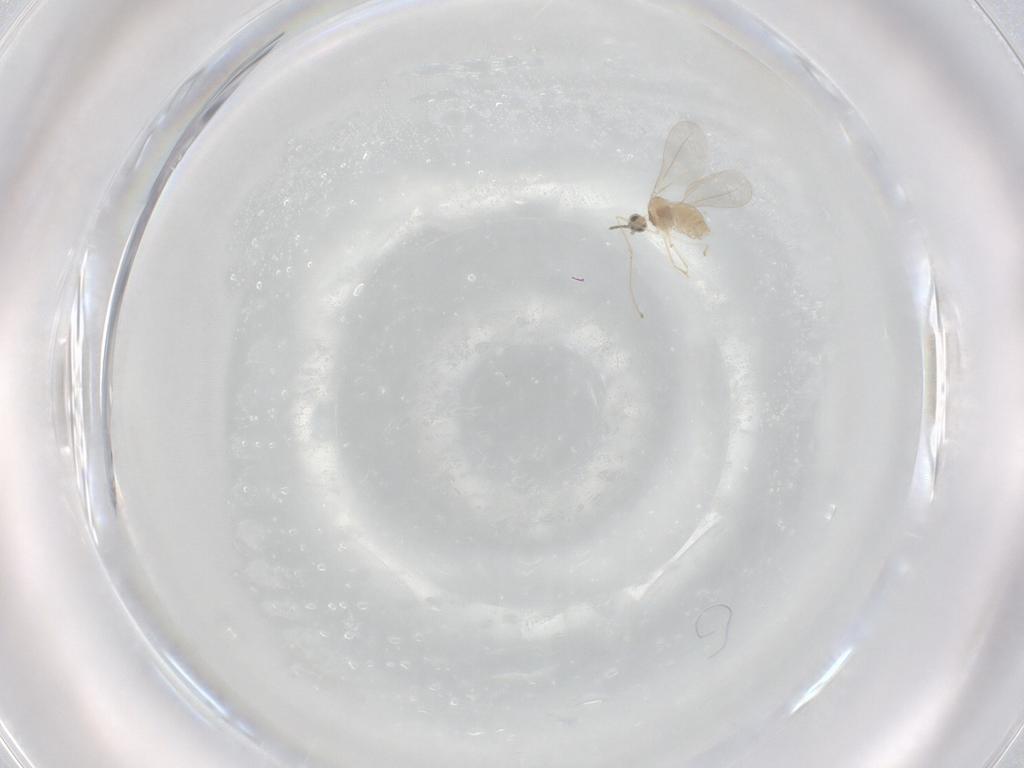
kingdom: Animalia
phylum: Arthropoda
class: Insecta
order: Diptera
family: Cecidomyiidae
